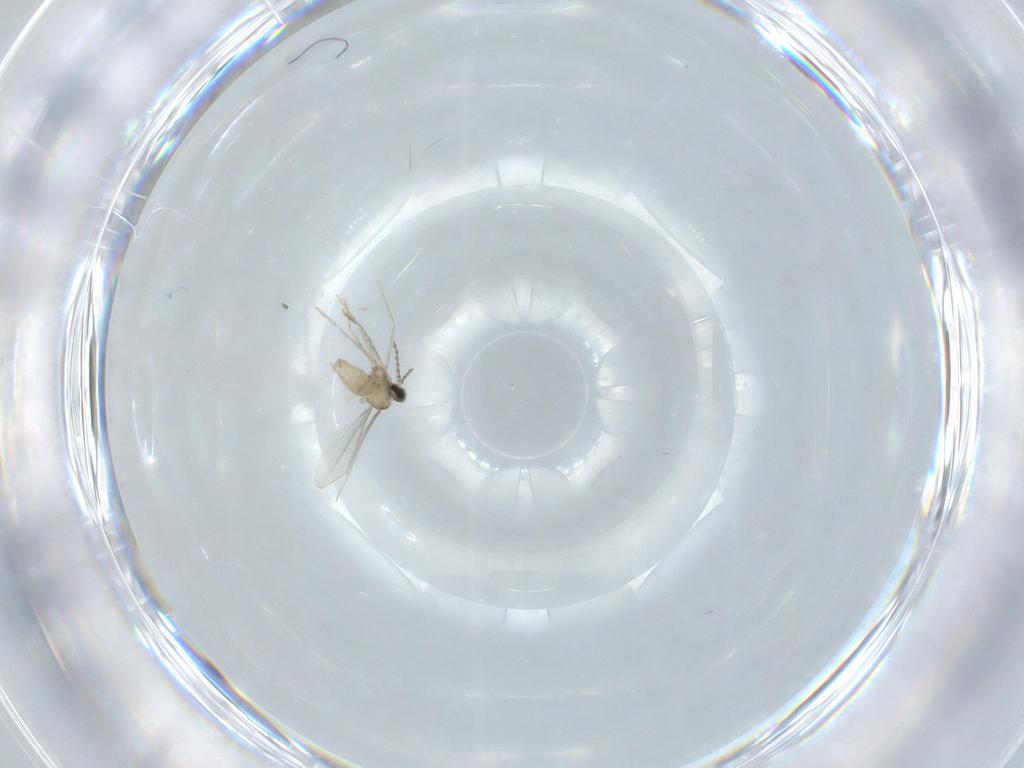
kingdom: Animalia
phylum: Arthropoda
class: Insecta
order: Diptera
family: Cecidomyiidae
